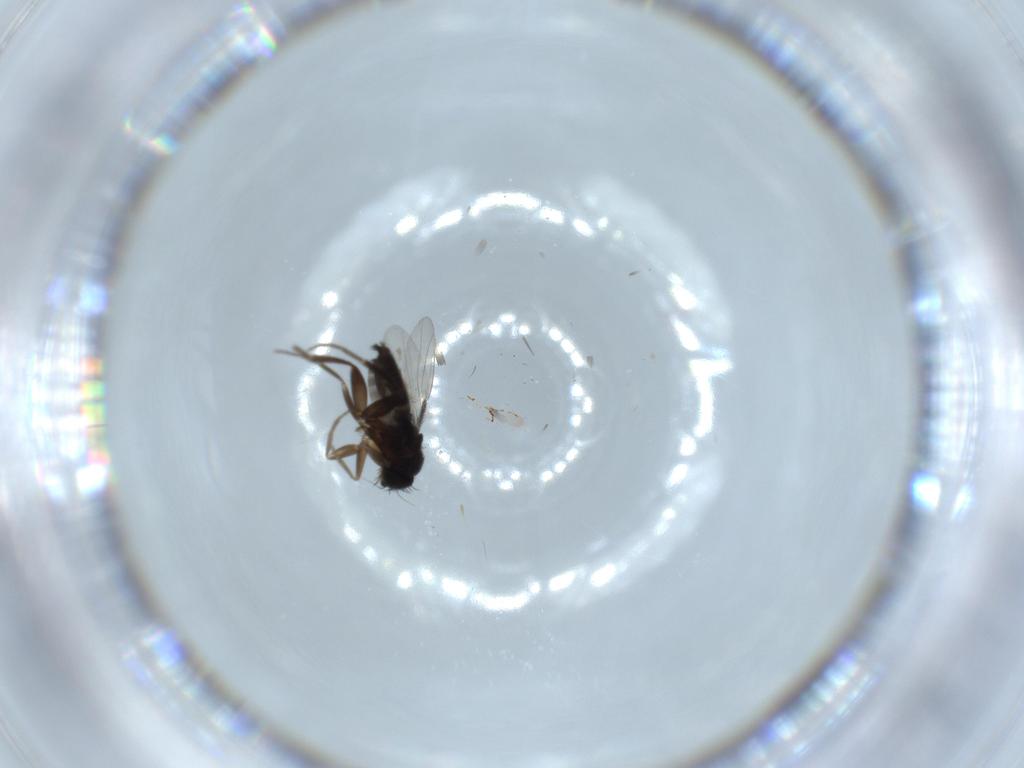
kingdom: Animalia
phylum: Arthropoda
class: Insecta
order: Diptera
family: Phoridae
